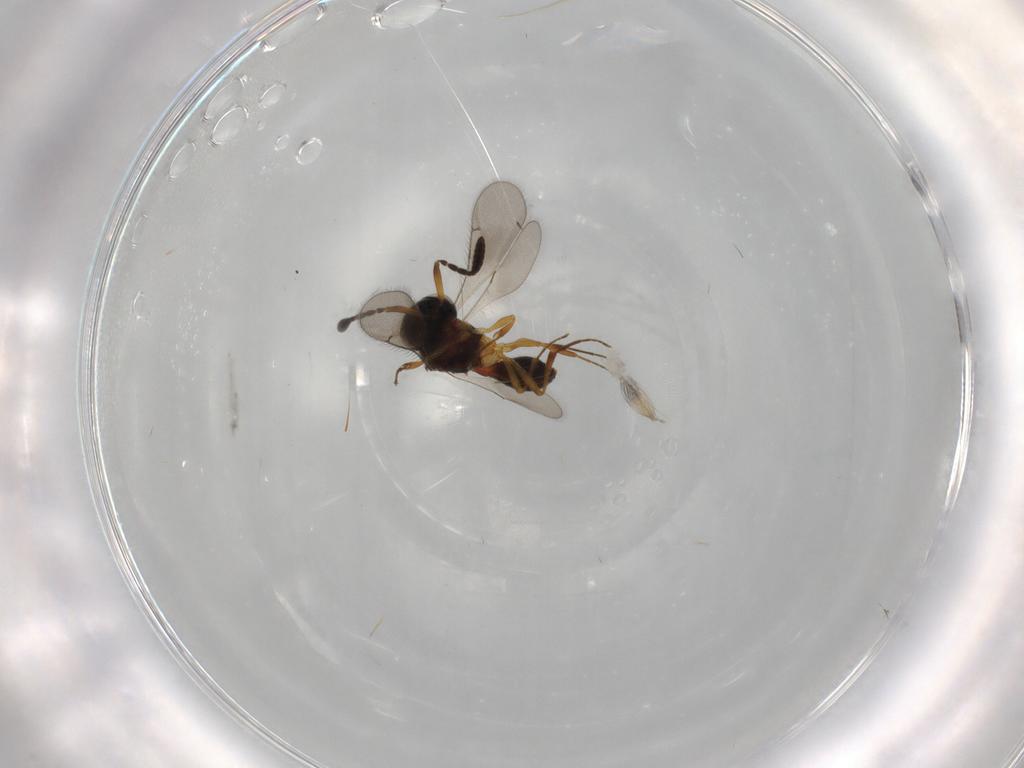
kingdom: Animalia
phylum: Arthropoda
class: Insecta
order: Hymenoptera
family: Scelionidae
